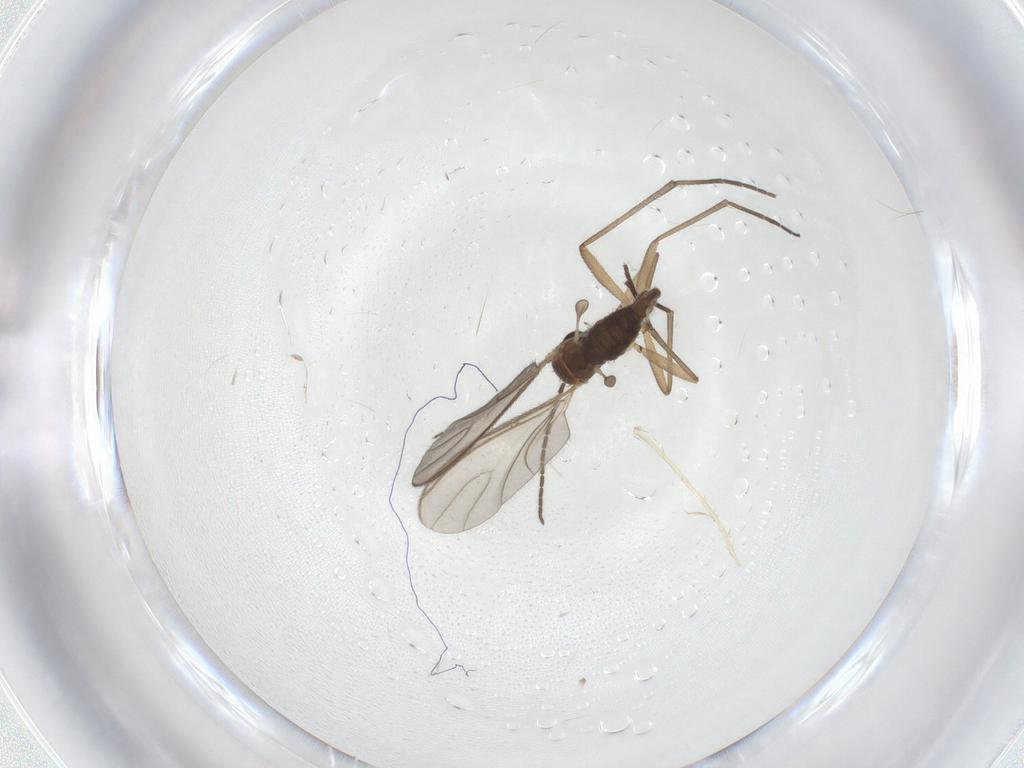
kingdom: Animalia
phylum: Arthropoda
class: Insecta
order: Diptera
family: Sciaridae
